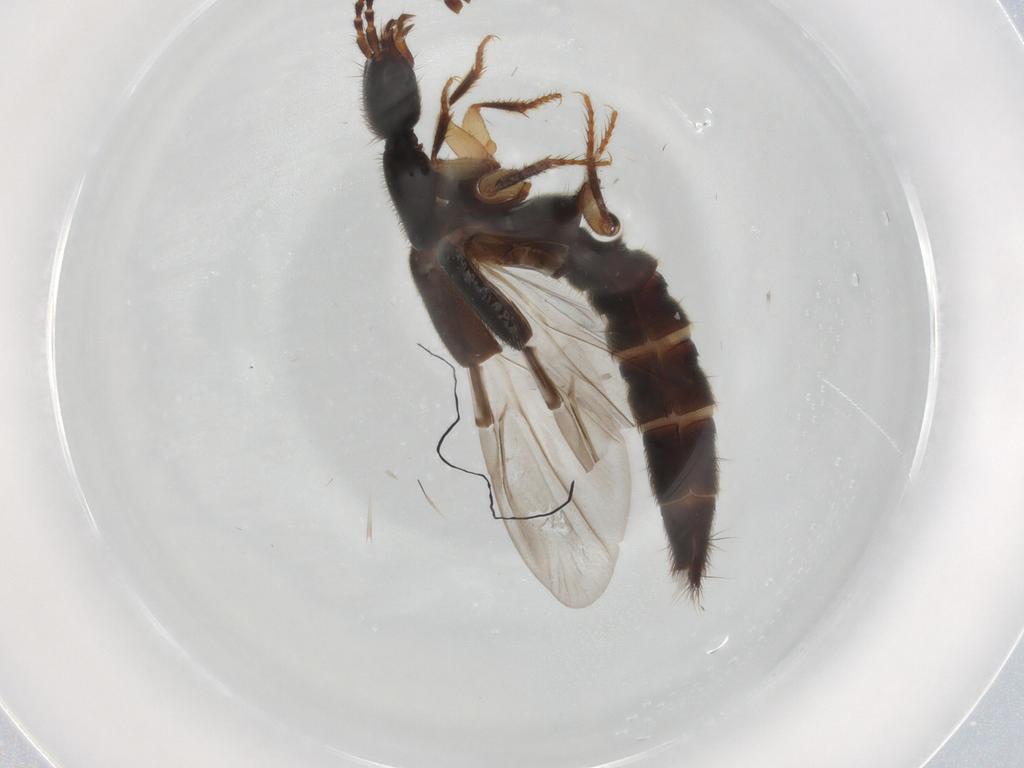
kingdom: Animalia
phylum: Arthropoda
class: Insecta
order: Coleoptera
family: Staphylinidae
